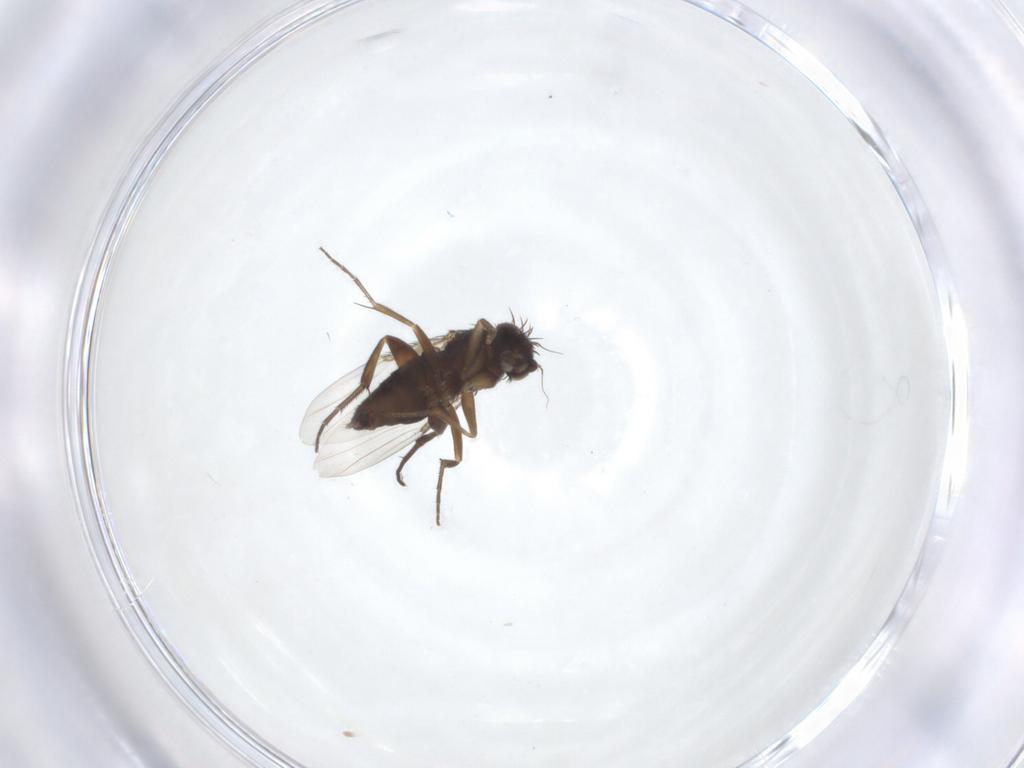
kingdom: Animalia
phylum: Arthropoda
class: Insecta
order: Diptera
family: Phoridae
